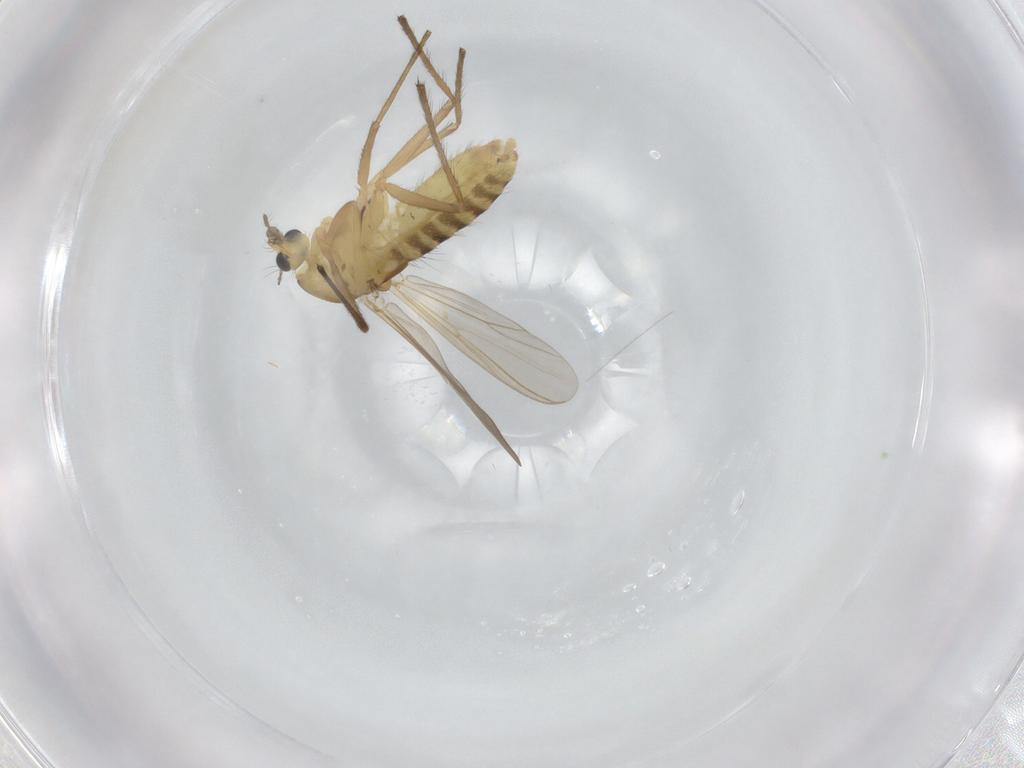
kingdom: Animalia
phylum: Arthropoda
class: Insecta
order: Diptera
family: Chironomidae
